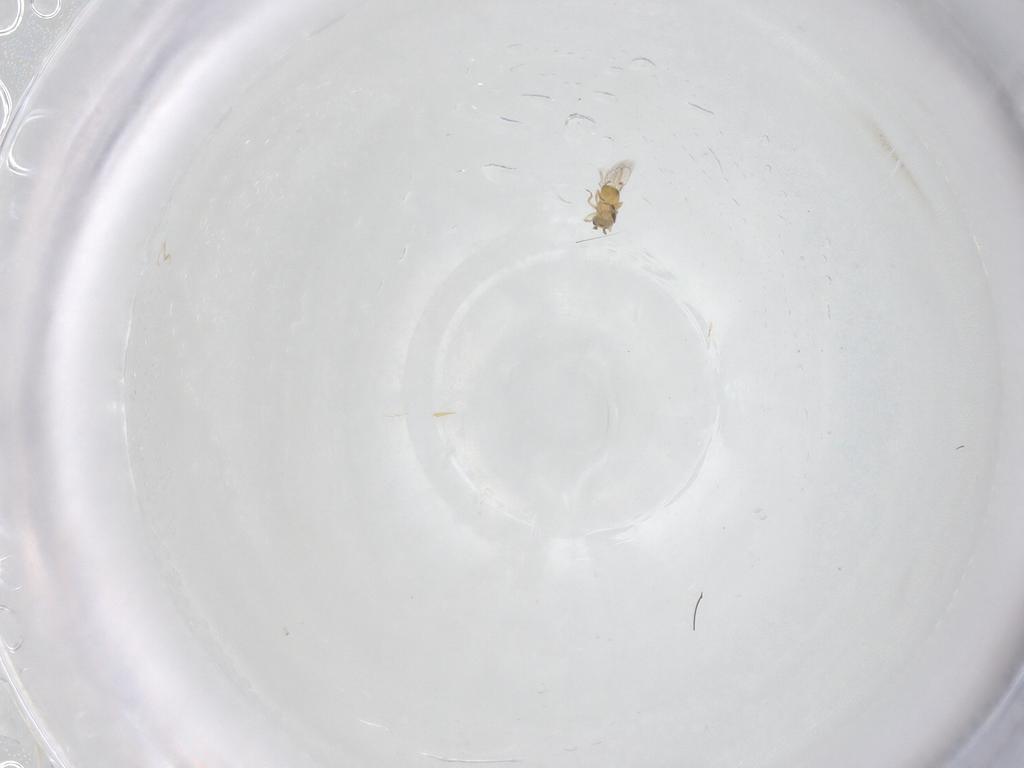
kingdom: Animalia
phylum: Arthropoda
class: Insecta
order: Hymenoptera
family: Trichogrammatidae
